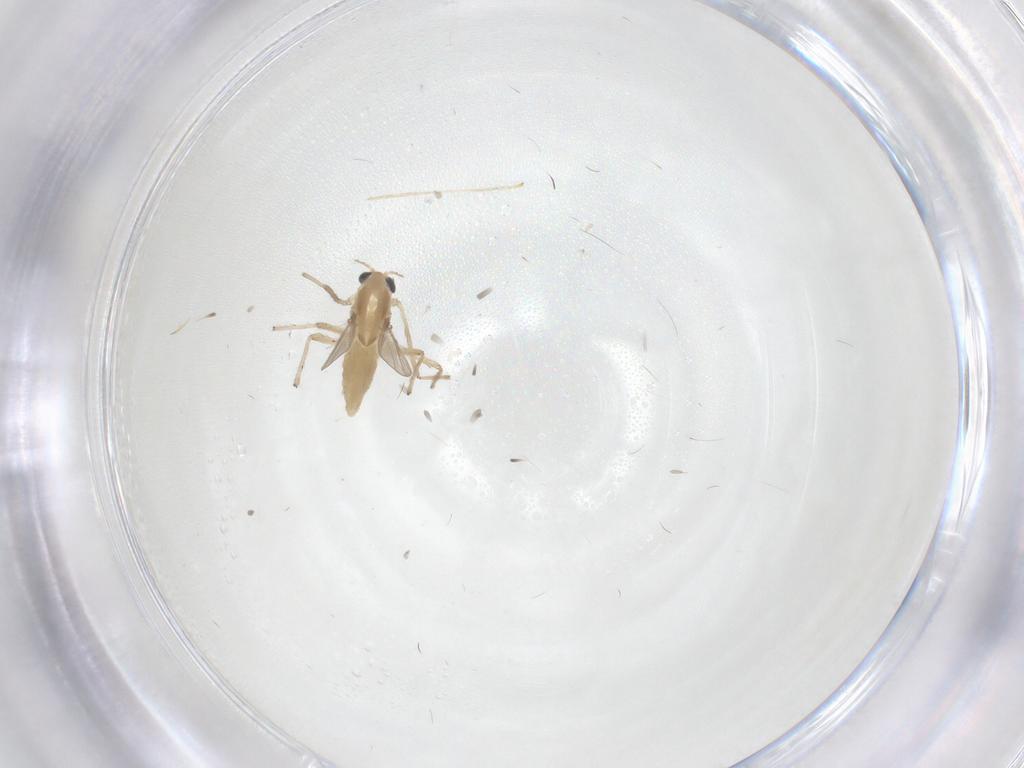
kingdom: Animalia
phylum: Arthropoda
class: Insecta
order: Diptera
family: Chironomidae
